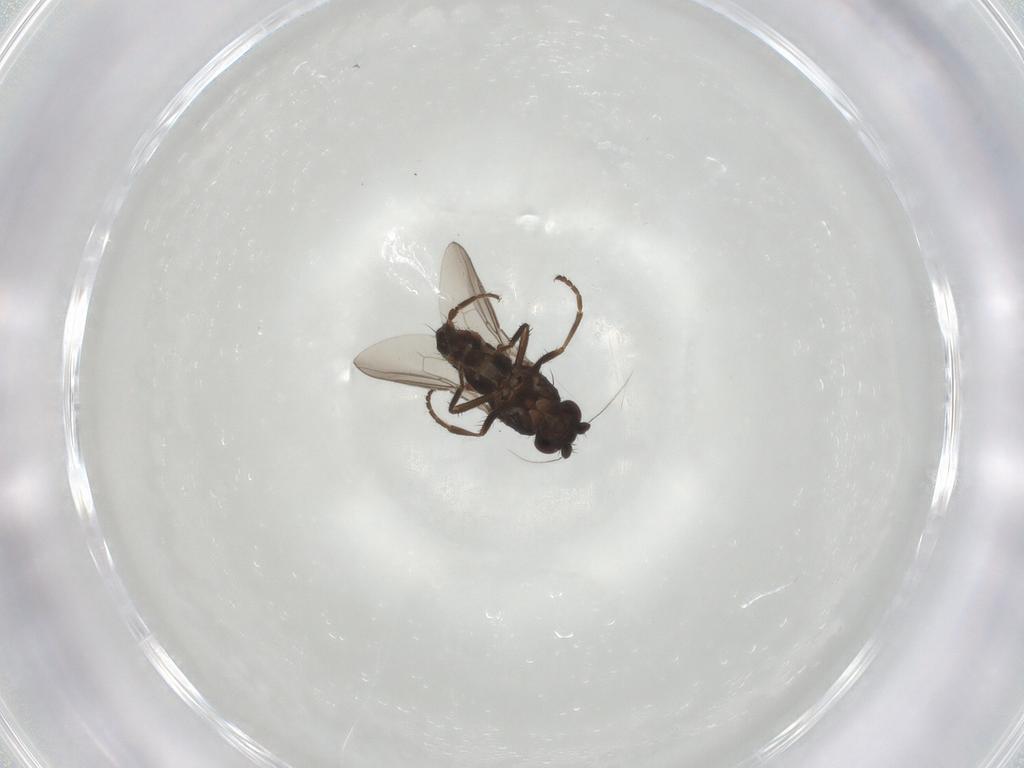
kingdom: Animalia
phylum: Arthropoda
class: Insecta
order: Diptera
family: Sphaeroceridae
